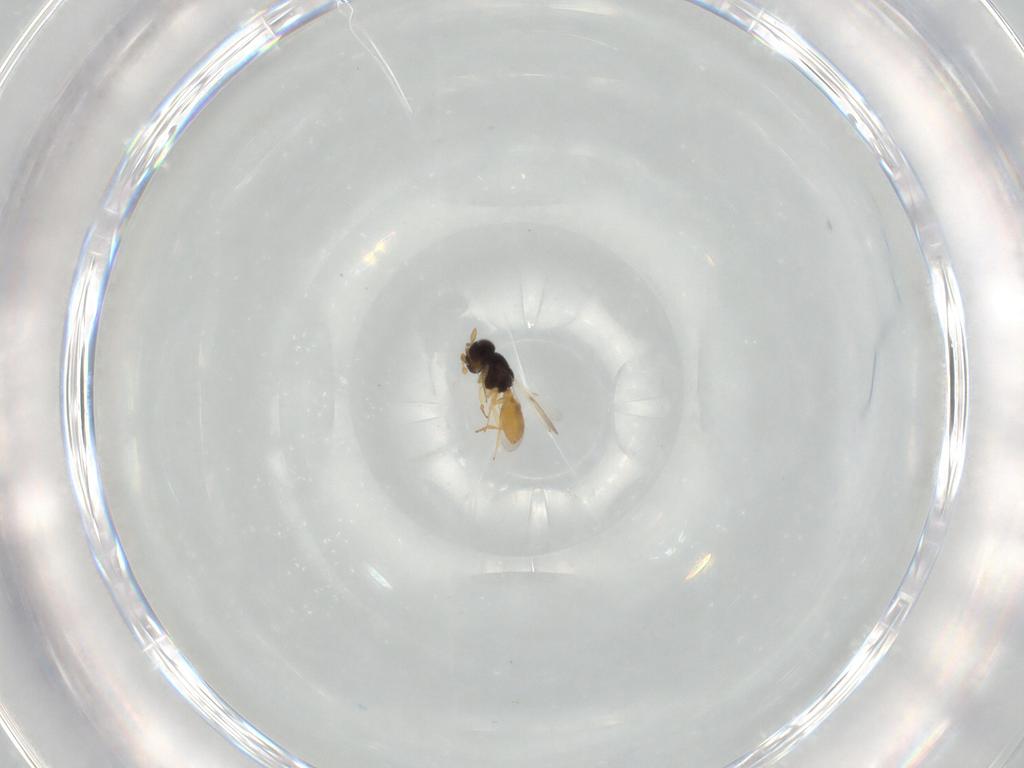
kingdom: Animalia
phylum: Arthropoda
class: Insecta
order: Hymenoptera
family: Scelionidae
